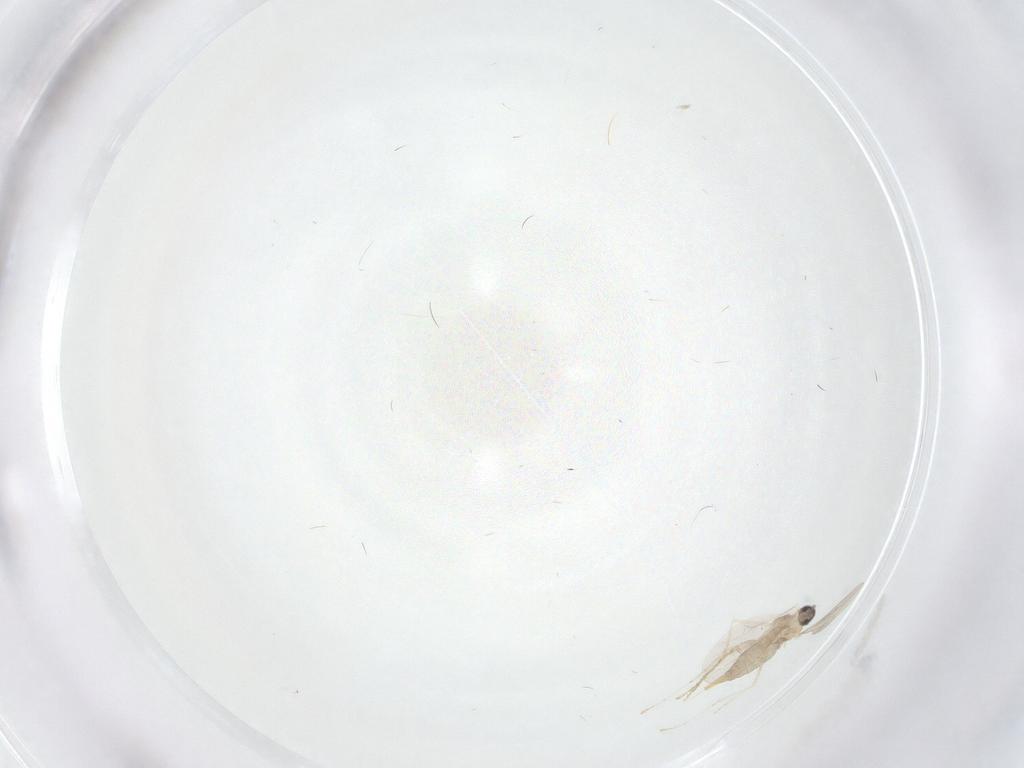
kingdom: Animalia
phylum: Arthropoda
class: Insecta
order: Diptera
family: Cecidomyiidae
